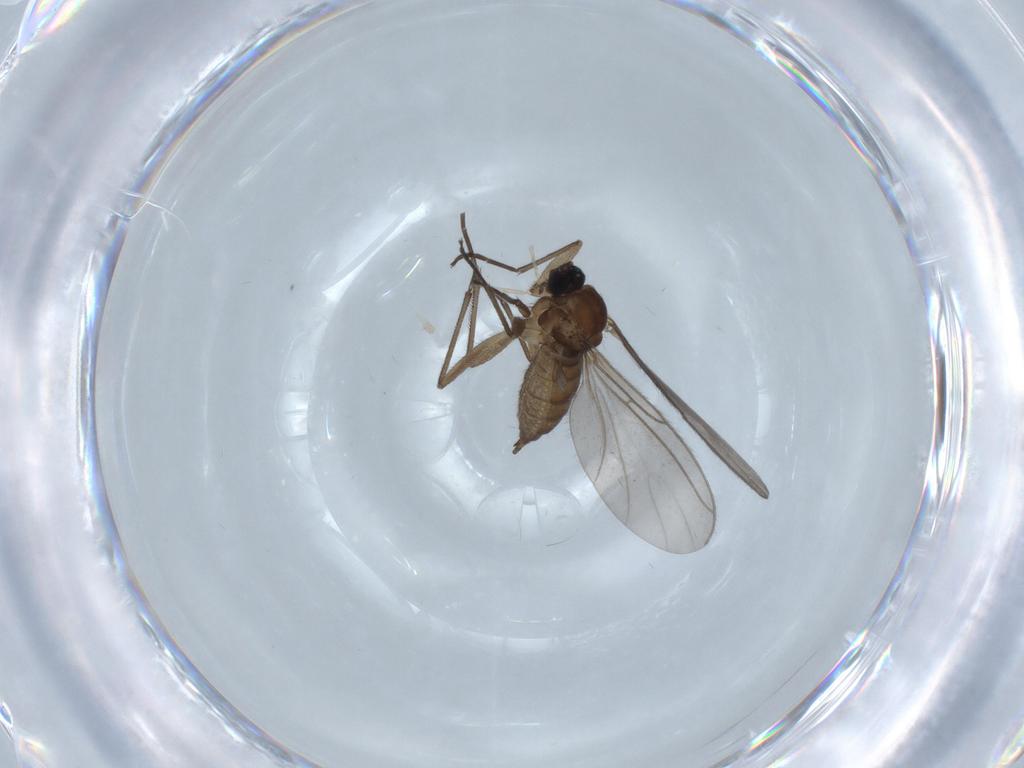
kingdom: Animalia
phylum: Arthropoda
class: Insecta
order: Diptera
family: Sciaridae
